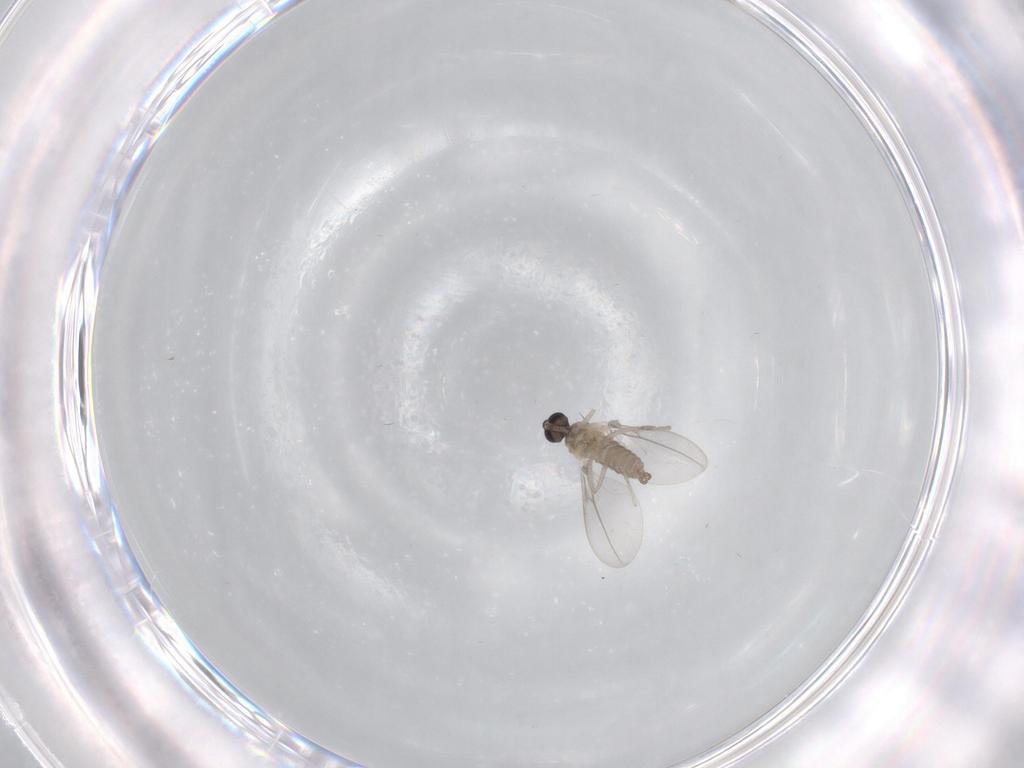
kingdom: Animalia
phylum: Arthropoda
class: Insecta
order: Diptera
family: Cecidomyiidae
